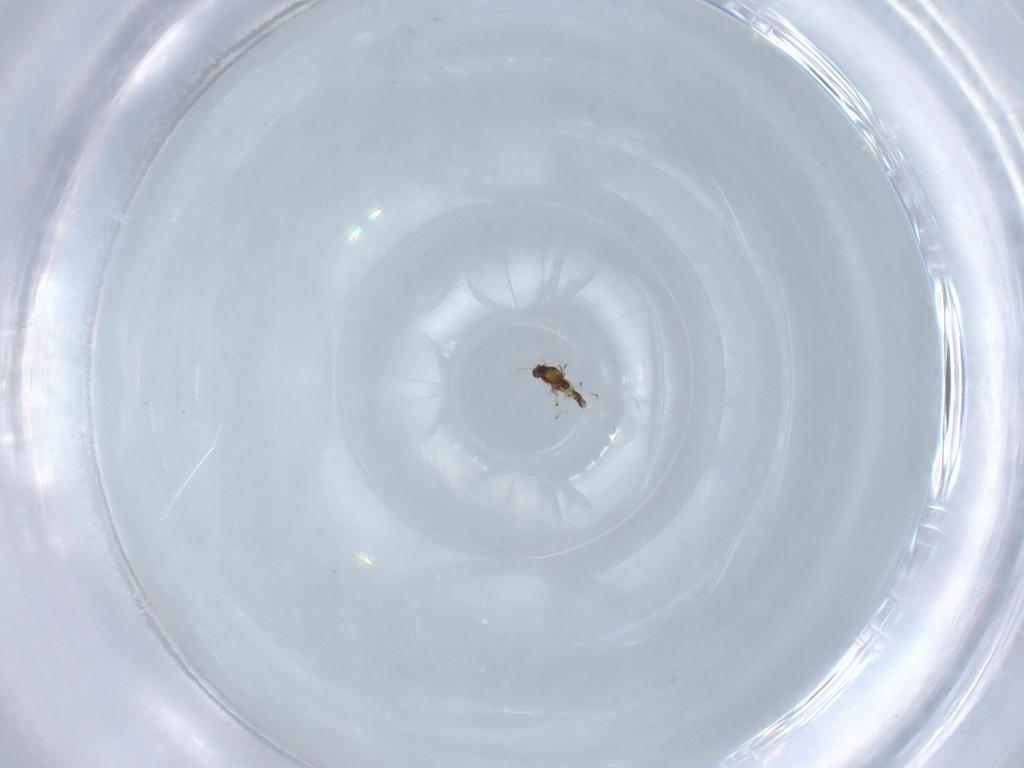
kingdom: Animalia
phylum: Arthropoda
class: Insecta
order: Diptera
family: Chironomidae
